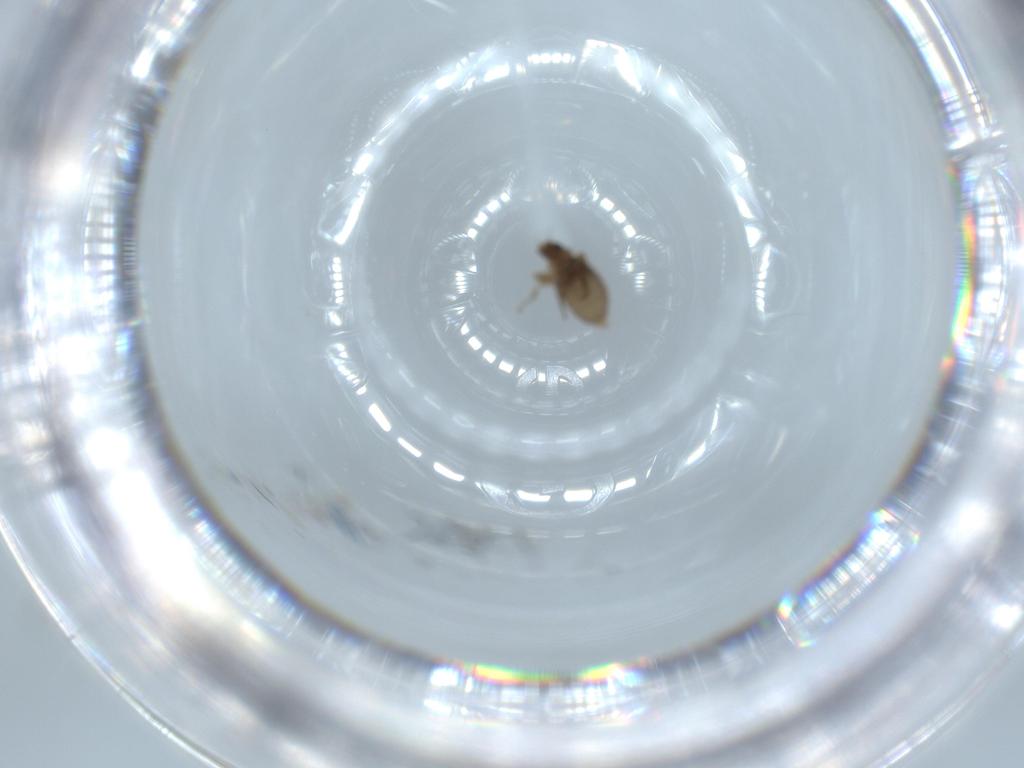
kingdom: Animalia
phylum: Arthropoda
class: Insecta
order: Diptera
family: Phoridae
